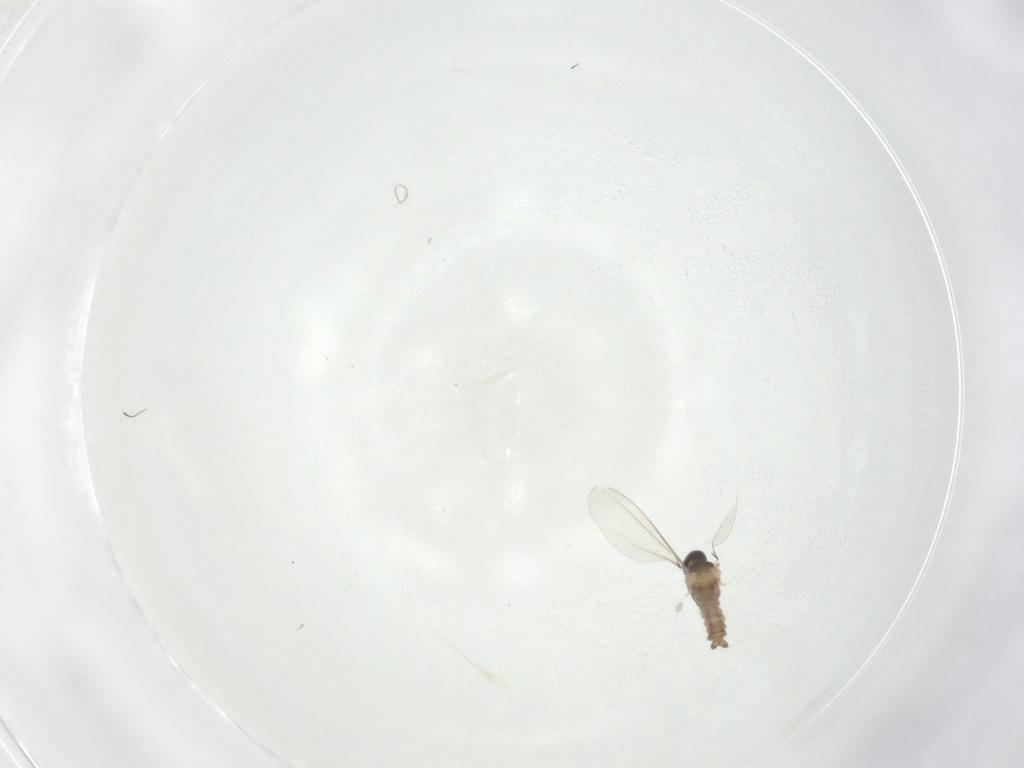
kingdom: Animalia
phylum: Arthropoda
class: Insecta
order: Diptera
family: Cecidomyiidae
